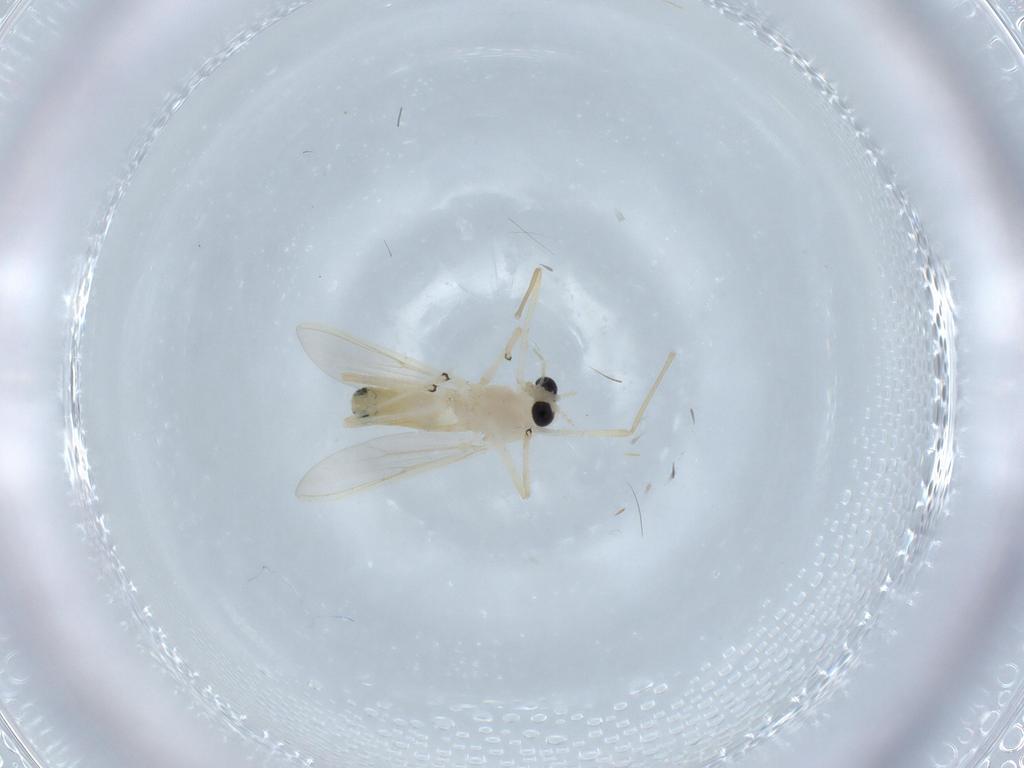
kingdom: Animalia
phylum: Arthropoda
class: Insecta
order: Diptera
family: Chironomidae
